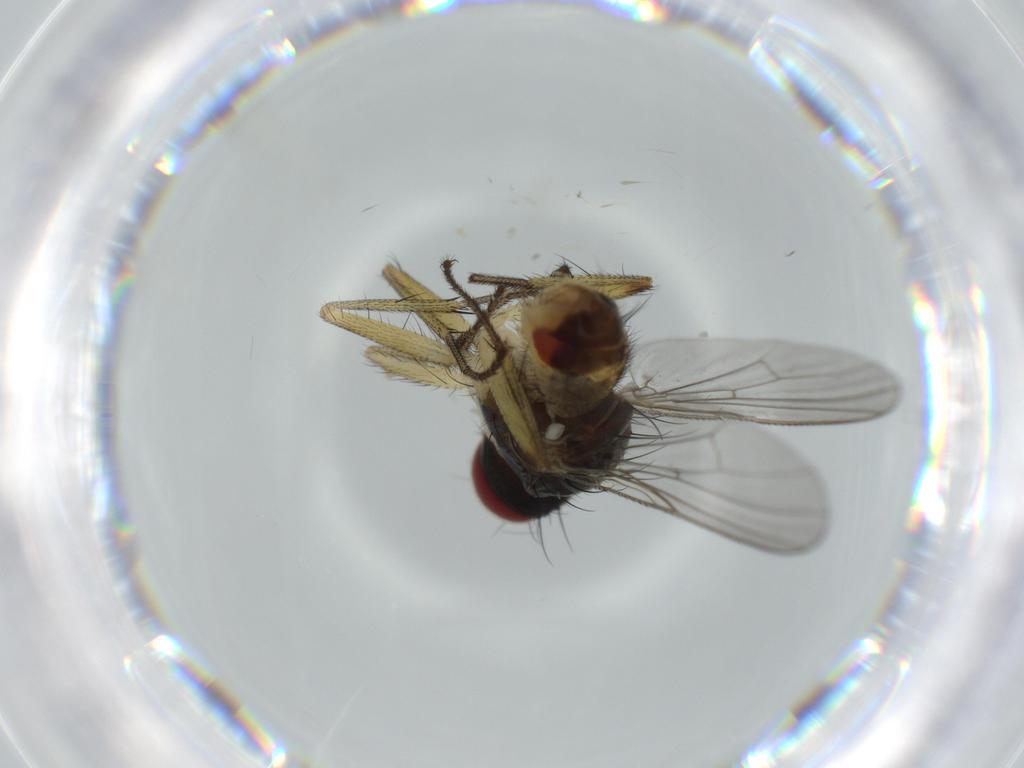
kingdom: Animalia
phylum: Arthropoda
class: Insecta
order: Diptera
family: Muscidae
